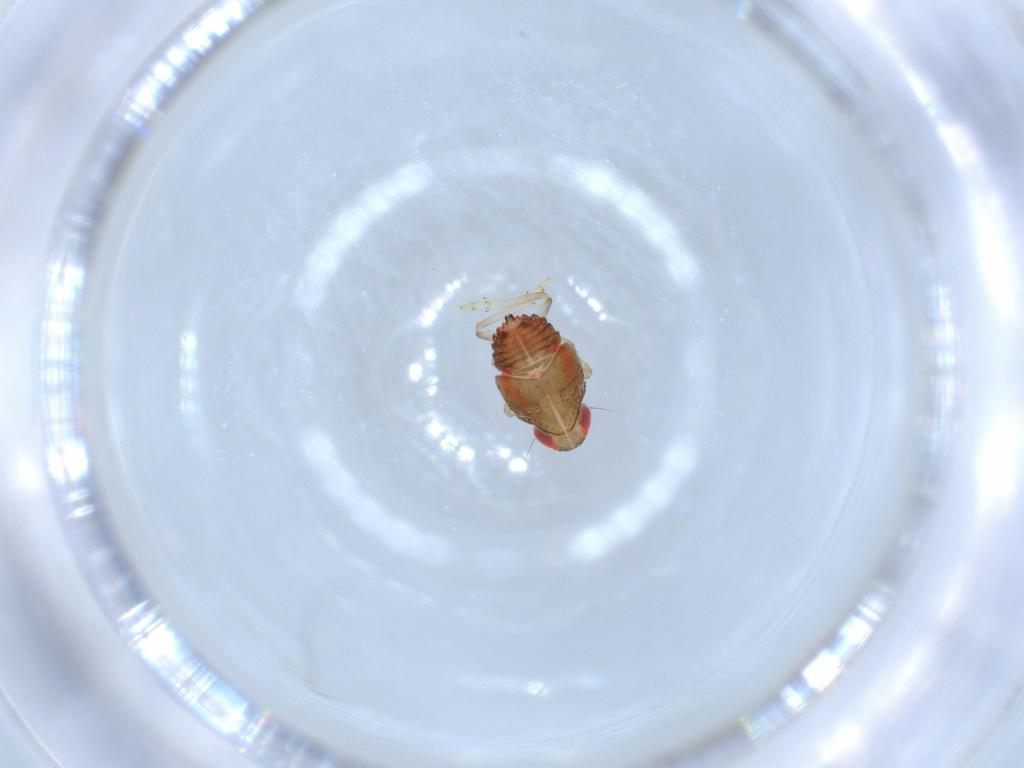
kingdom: Animalia
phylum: Arthropoda
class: Insecta
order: Hemiptera
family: Issidae
